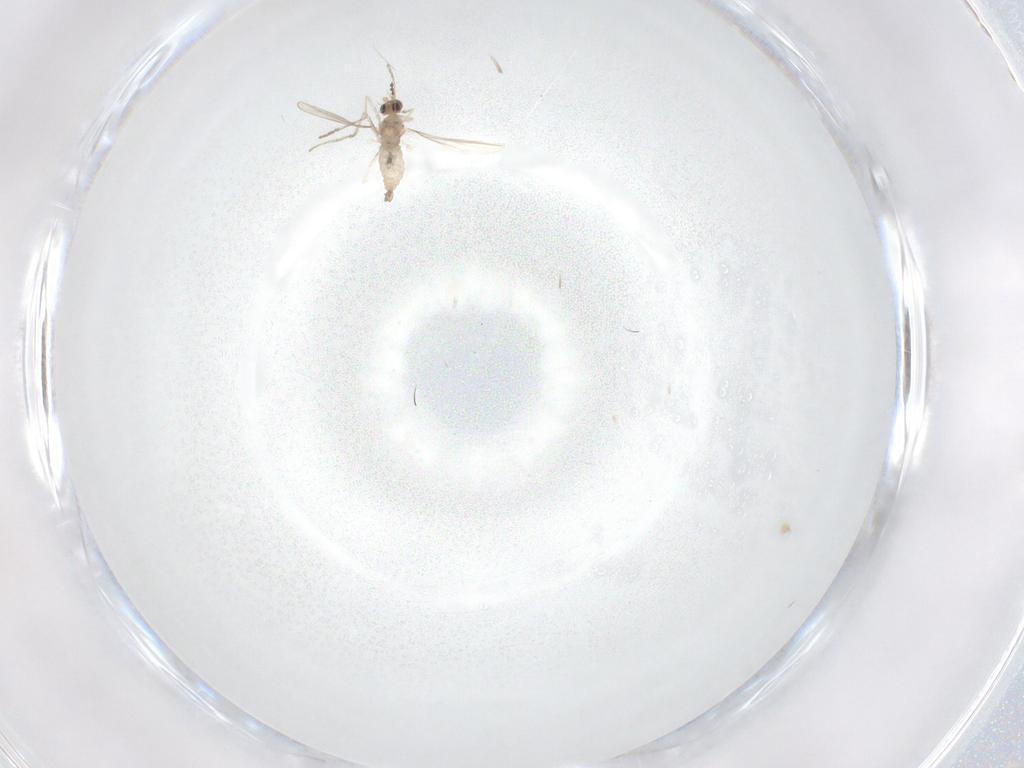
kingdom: Animalia
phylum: Arthropoda
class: Insecta
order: Diptera
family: Cecidomyiidae
